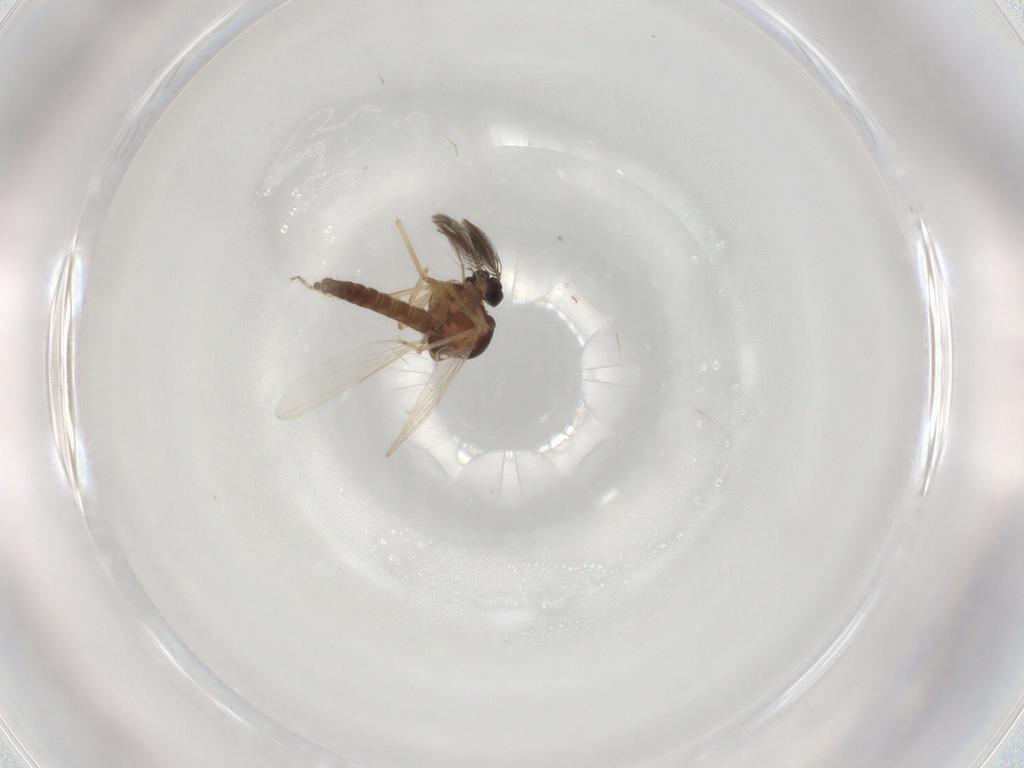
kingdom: Animalia
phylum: Arthropoda
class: Insecta
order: Diptera
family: Ceratopogonidae
